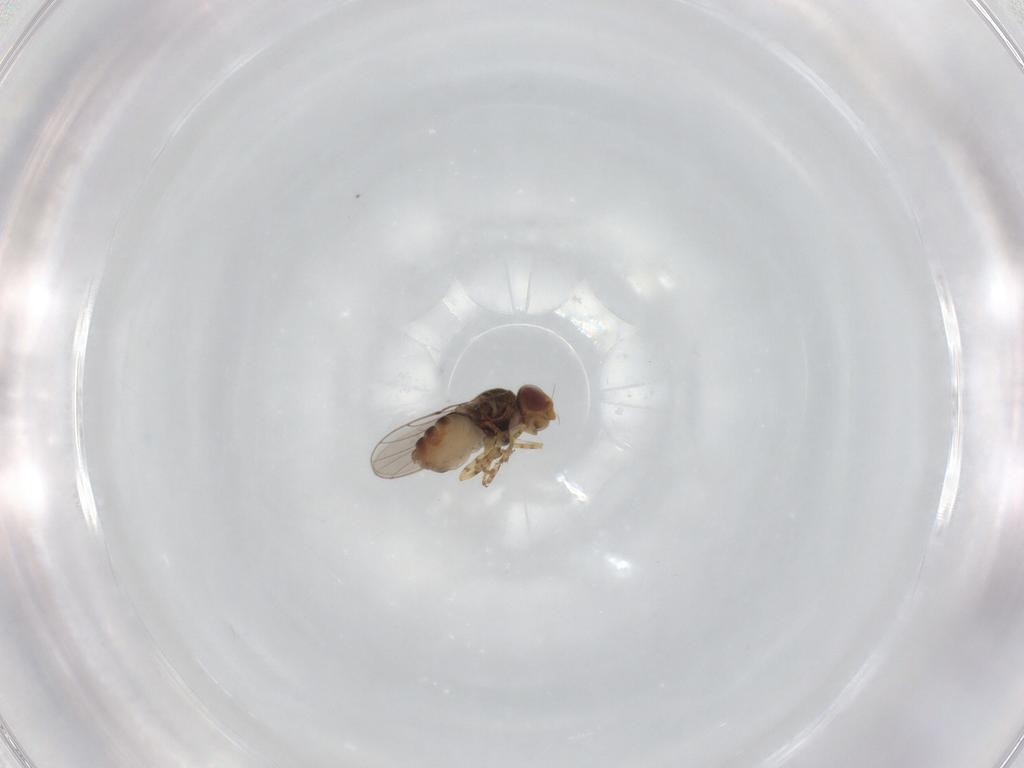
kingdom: Animalia
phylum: Arthropoda
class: Insecta
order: Diptera
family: Chloropidae
